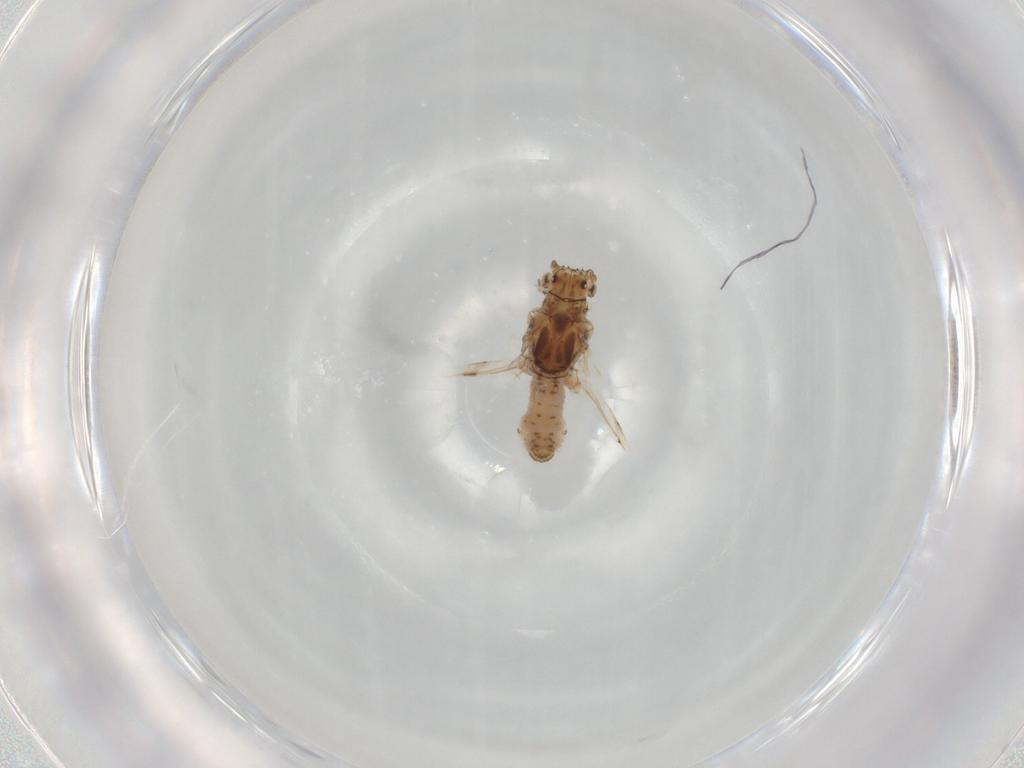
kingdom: Animalia
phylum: Arthropoda
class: Insecta
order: Hemiptera
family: Aphididae
